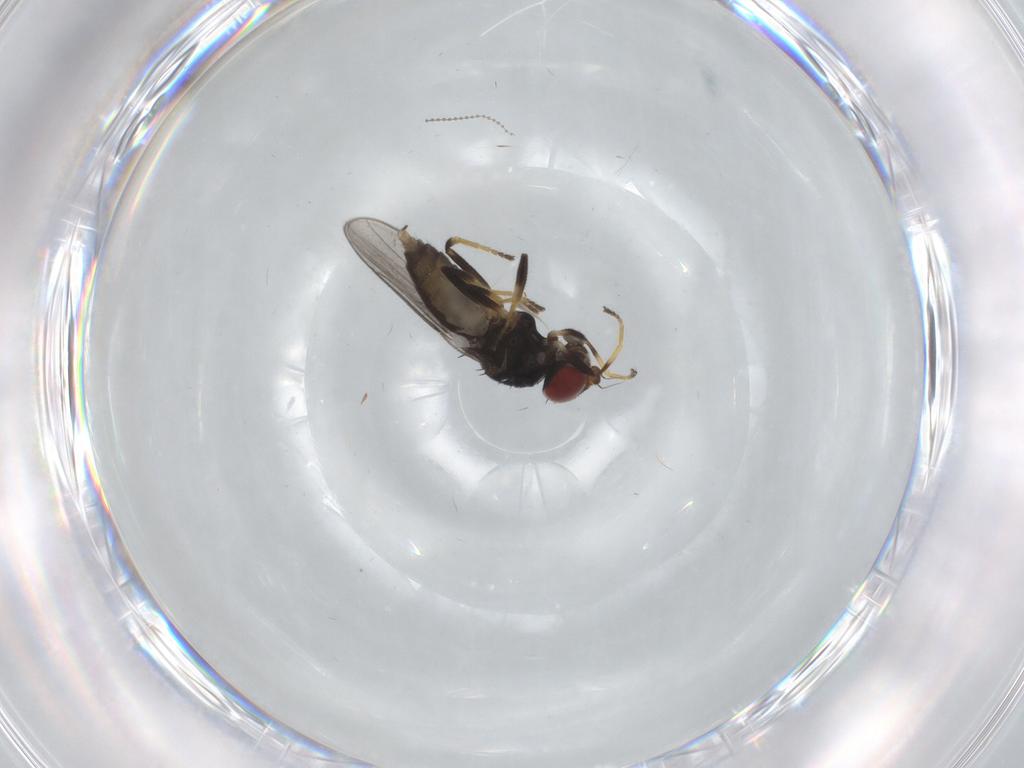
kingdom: Animalia
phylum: Arthropoda
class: Insecta
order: Diptera
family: Chloropidae
